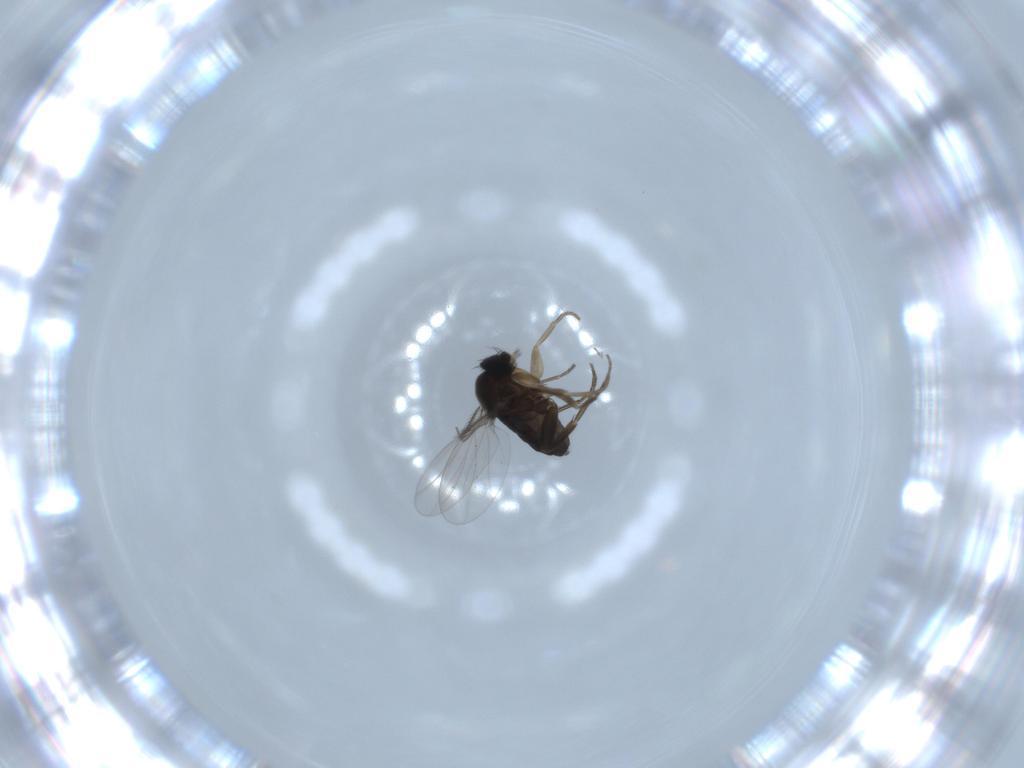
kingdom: Animalia
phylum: Arthropoda
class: Insecta
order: Diptera
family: Phoridae
